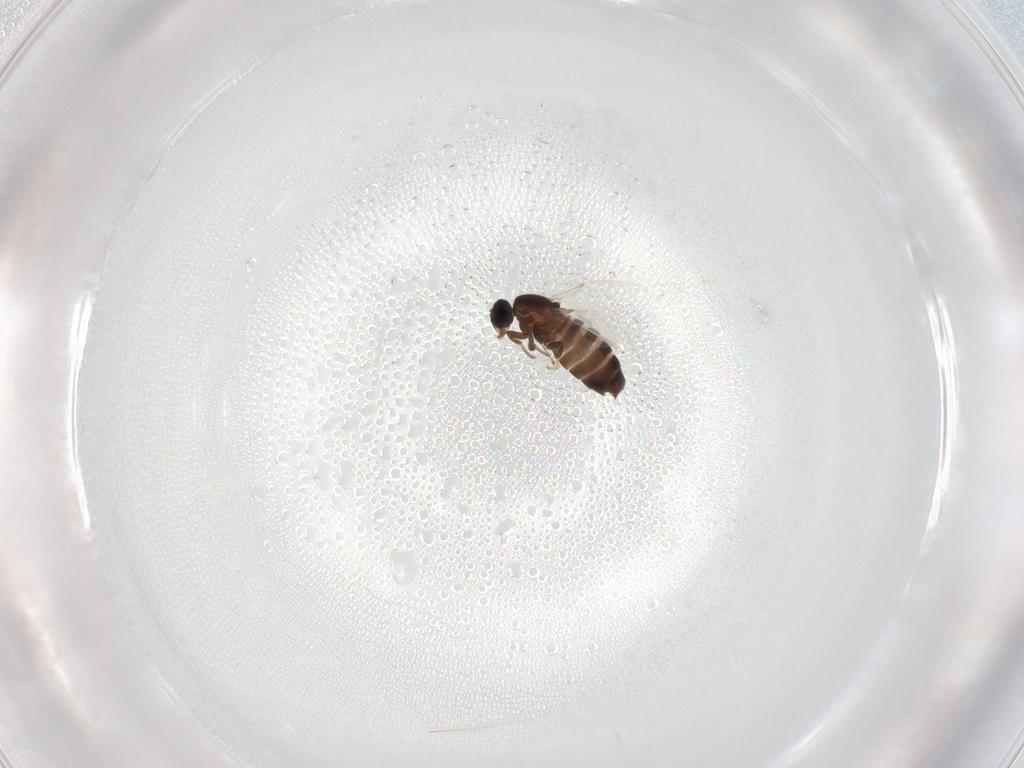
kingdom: Animalia
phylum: Arthropoda
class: Insecta
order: Diptera
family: Scatopsidae
